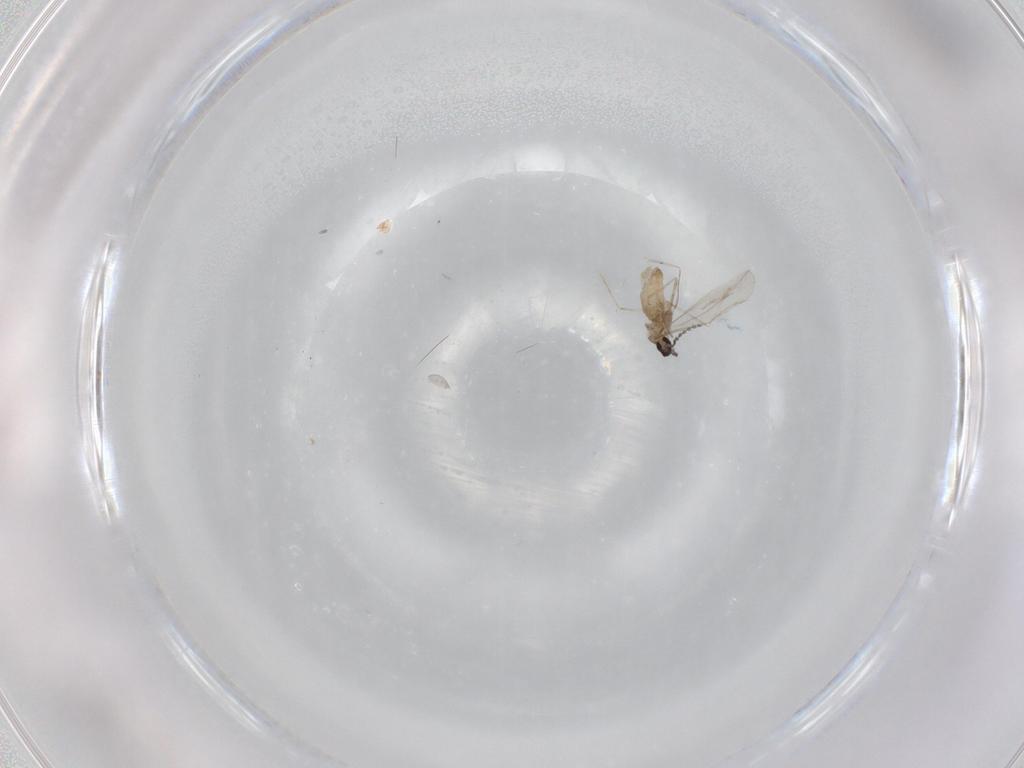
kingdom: Animalia
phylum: Arthropoda
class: Insecta
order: Diptera
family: Cecidomyiidae
